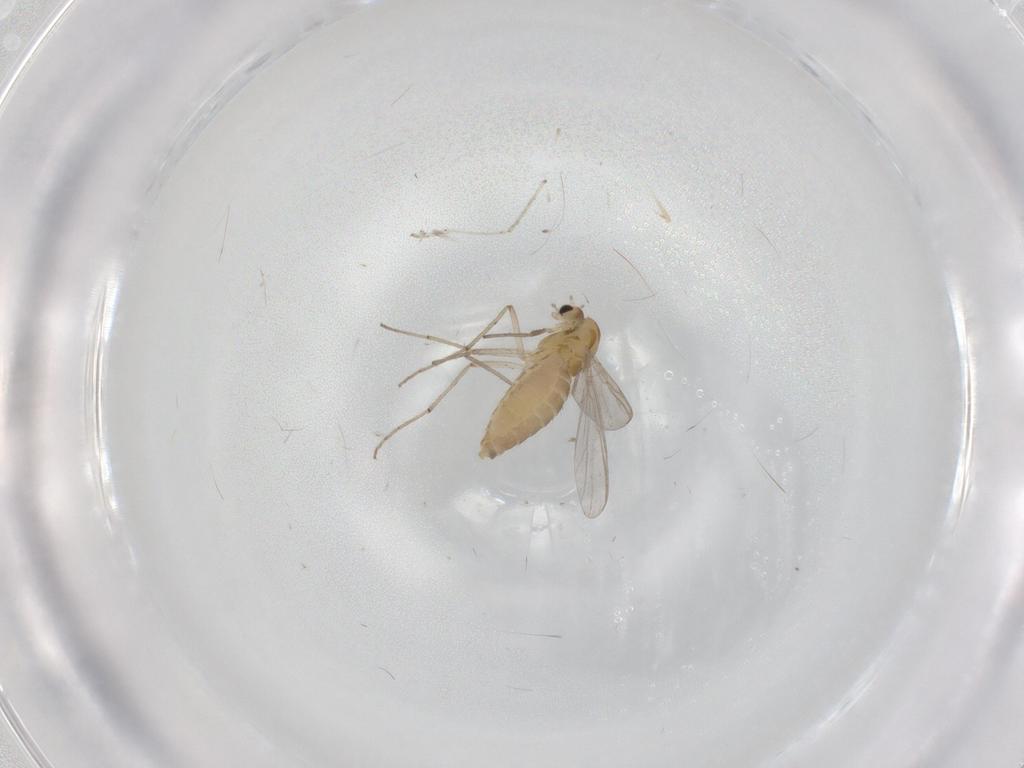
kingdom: Animalia
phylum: Arthropoda
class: Insecta
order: Diptera
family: Chironomidae
